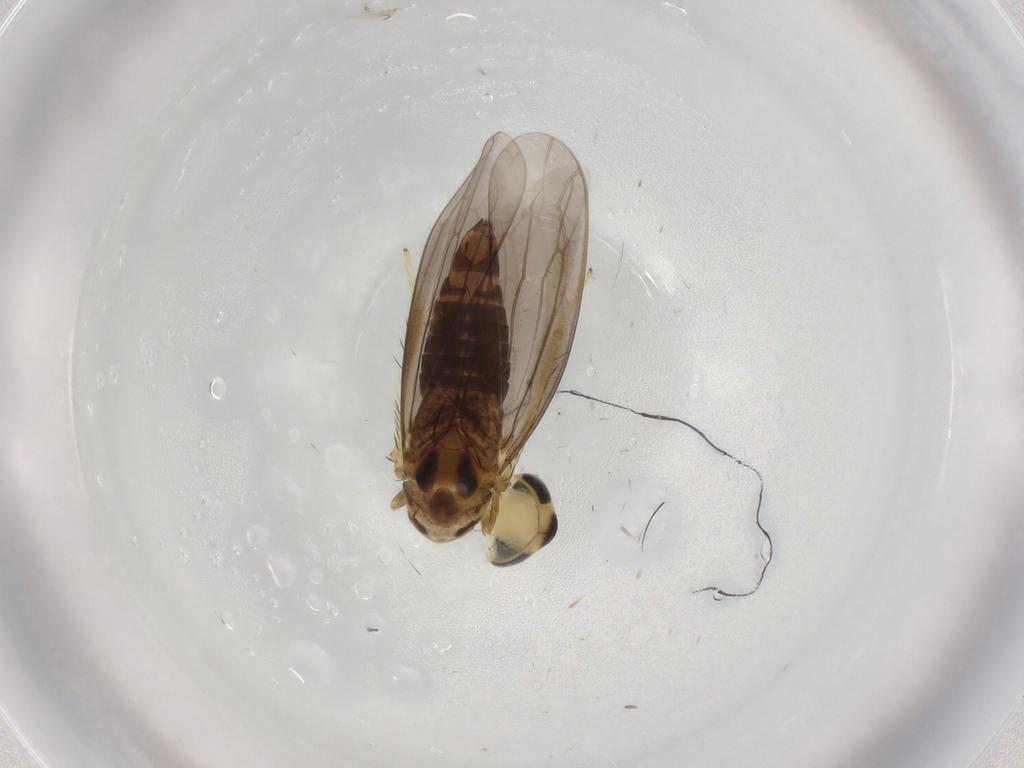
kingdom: Animalia
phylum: Arthropoda
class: Insecta
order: Hemiptera
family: Cicadellidae
